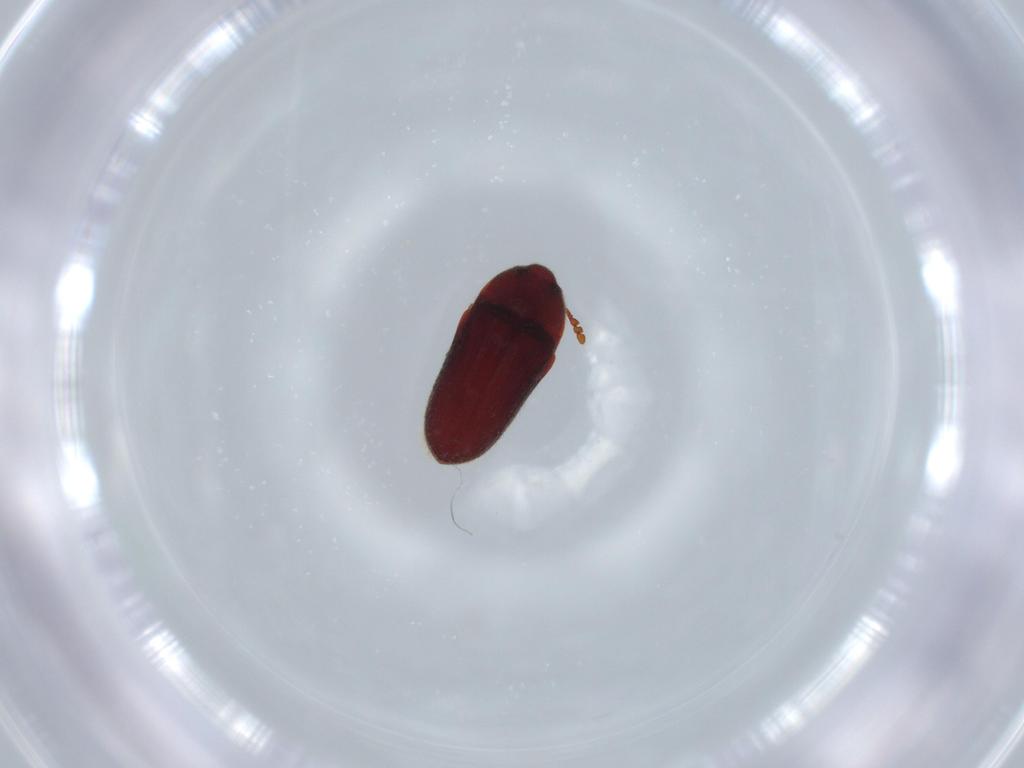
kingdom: Animalia
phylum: Arthropoda
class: Insecta
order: Coleoptera
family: Throscidae
